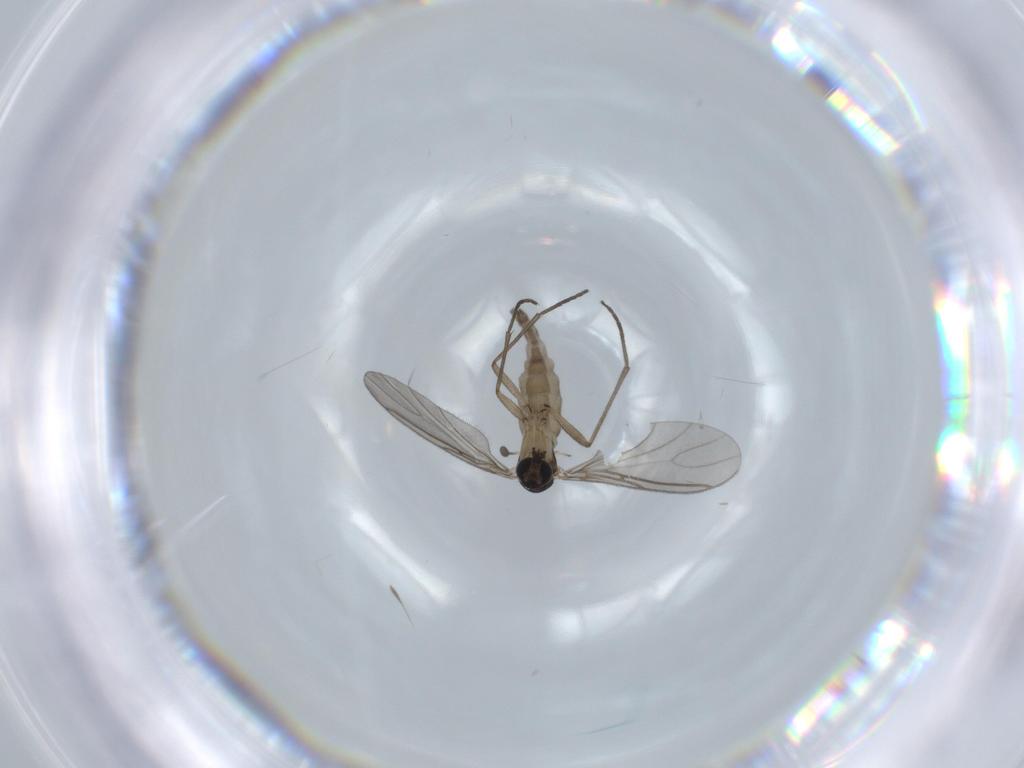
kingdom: Animalia
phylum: Arthropoda
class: Insecta
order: Diptera
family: Sciaridae
